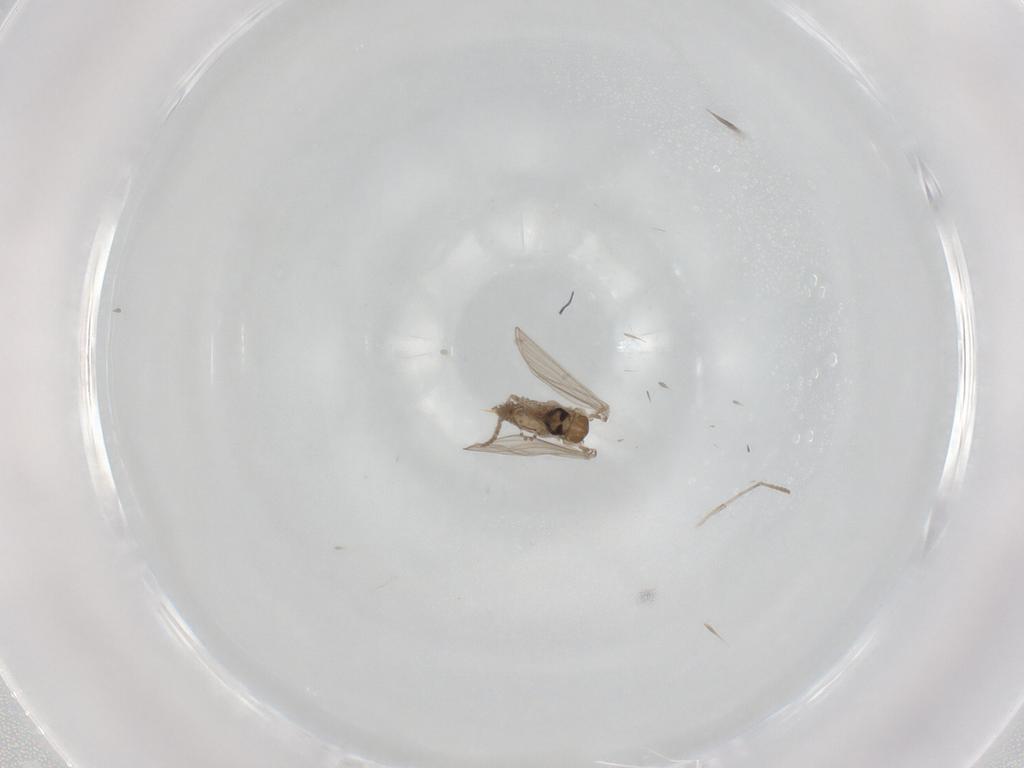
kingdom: Animalia
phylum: Arthropoda
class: Insecta
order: Diptera
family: Psychodidae
